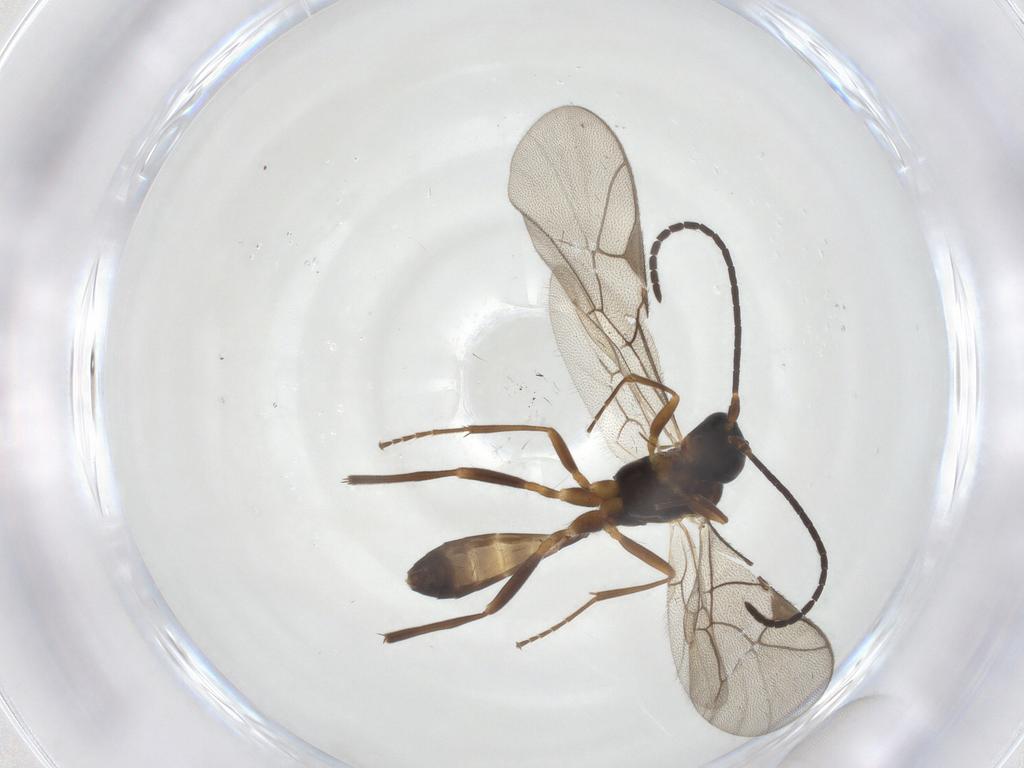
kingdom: Animalia
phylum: Arthropoda
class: Insecta
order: Hymenoptera
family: Ichneumonidae
